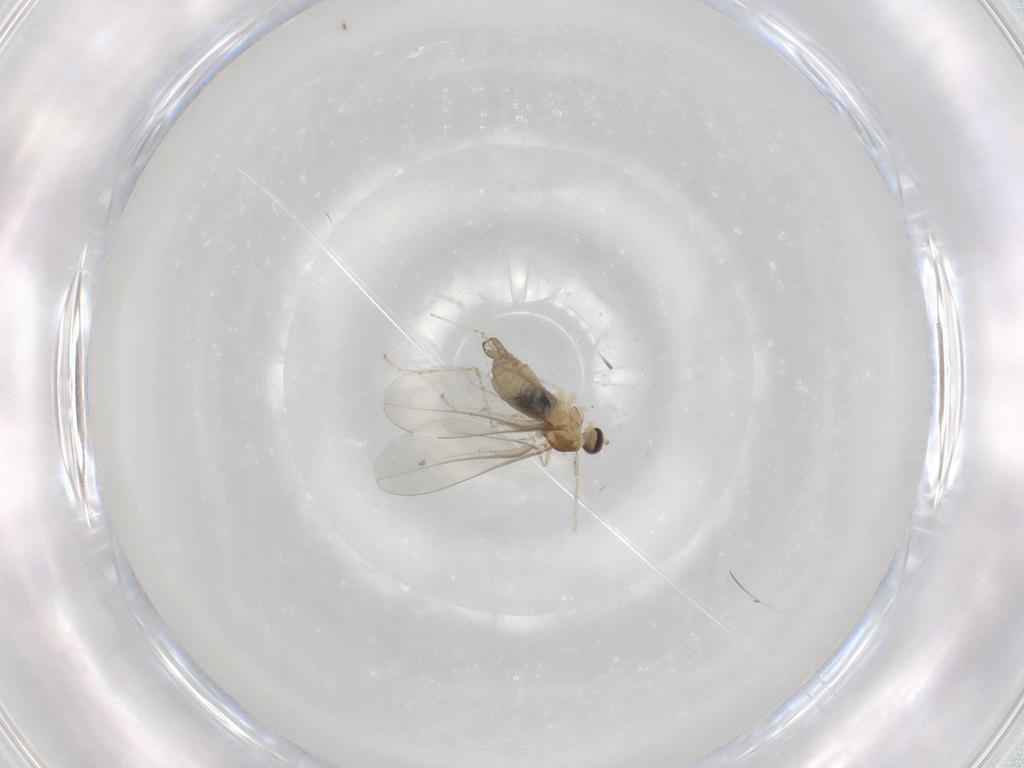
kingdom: Animalia
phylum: Arthropoda
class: Insecta
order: Diptera
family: Cecidomyiidae
